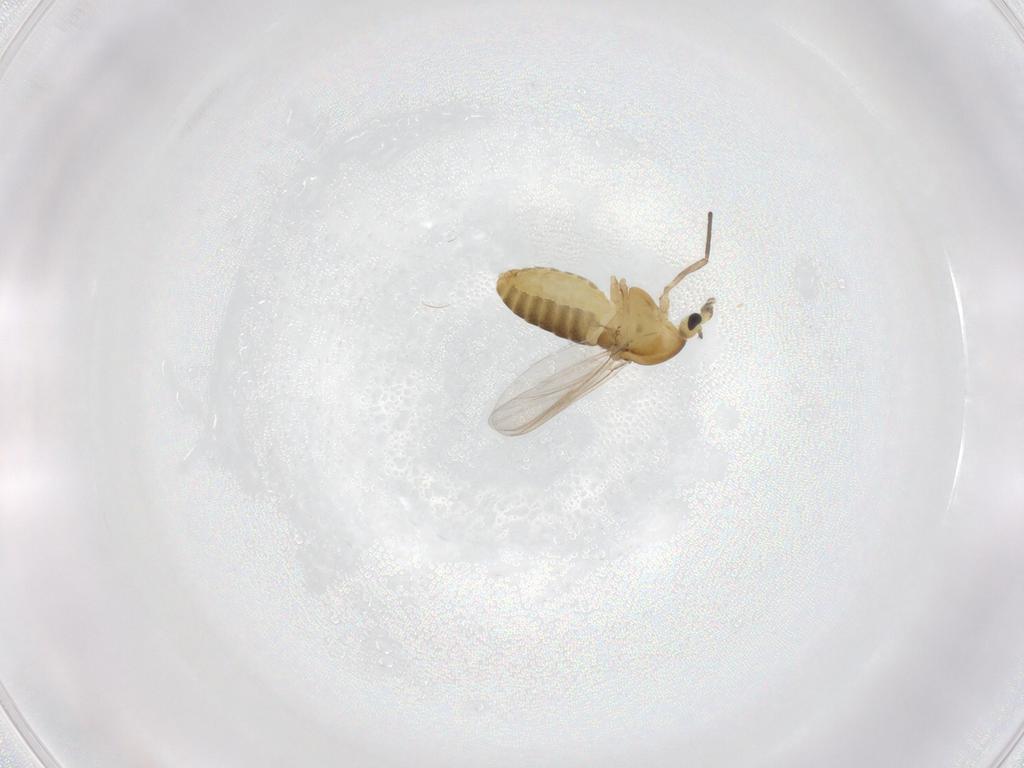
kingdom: Animalia
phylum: Arthropoda
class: Insecta
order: Diptera
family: Chironomidae
